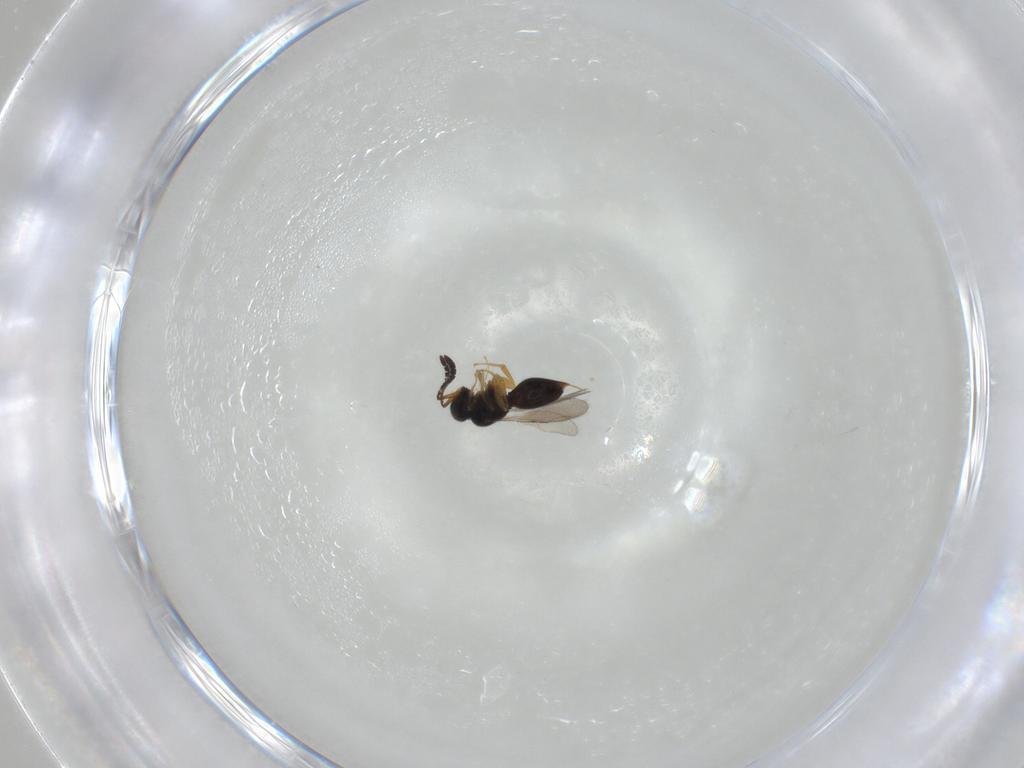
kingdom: Animalia
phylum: Arthropoda
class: Insecta
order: Hymenoptera
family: Ceraphronidae
